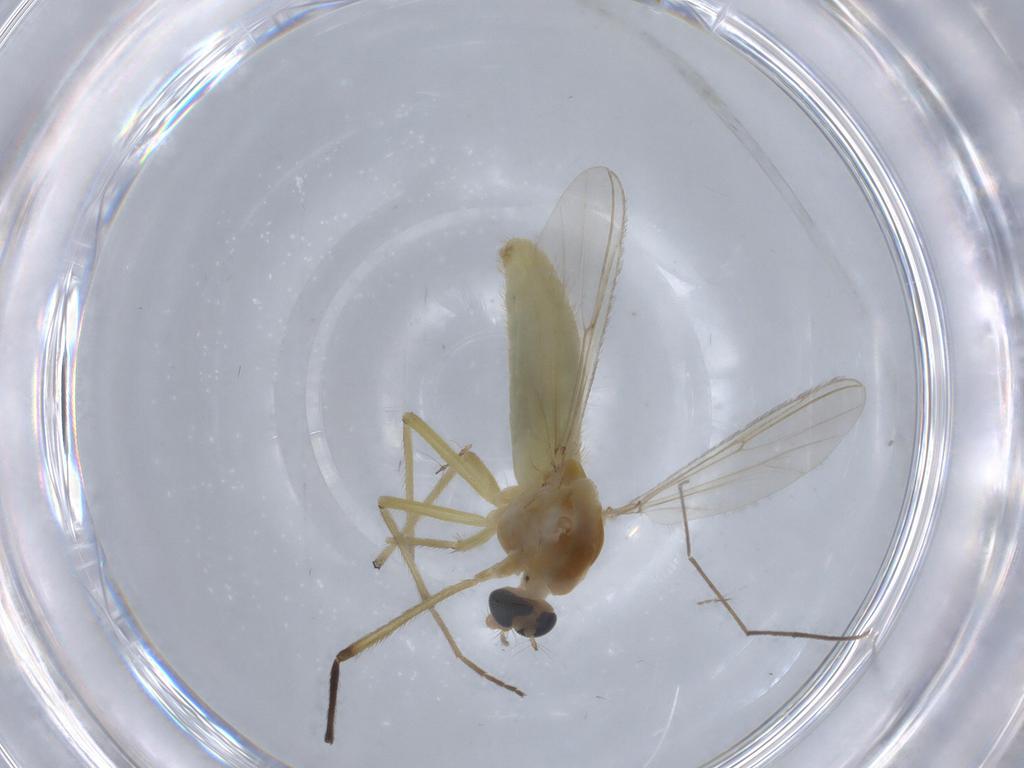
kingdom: Animalia
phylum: Arthropoda
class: Insecta
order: Diptera
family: Chironomidae
